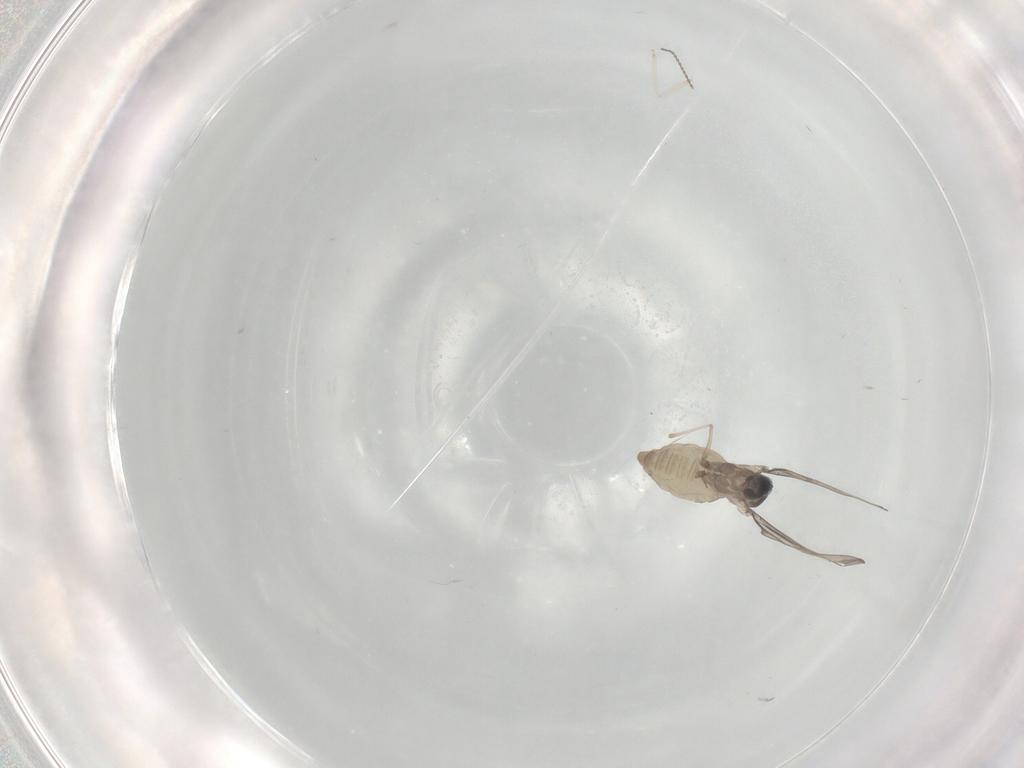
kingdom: Animalia
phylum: Arthropoda
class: Insecta
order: Diptera
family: Cecidomyiidae
